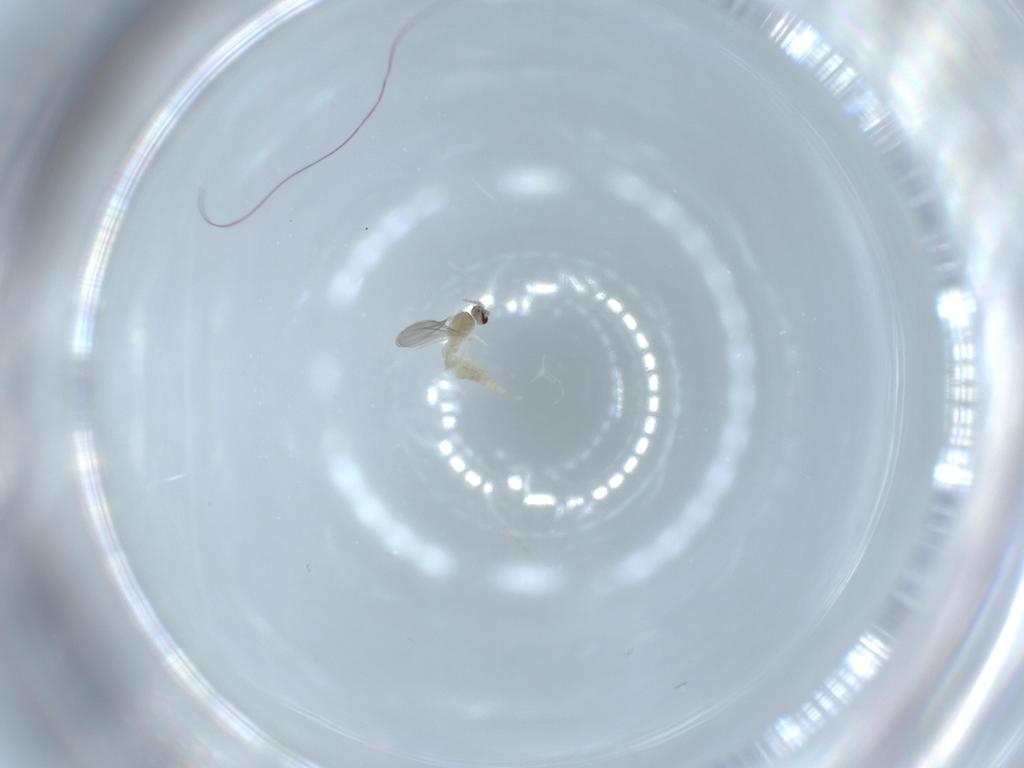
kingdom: Animalia
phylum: Arthropoda
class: Insecta
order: Diptera
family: Cecidomyiidae
